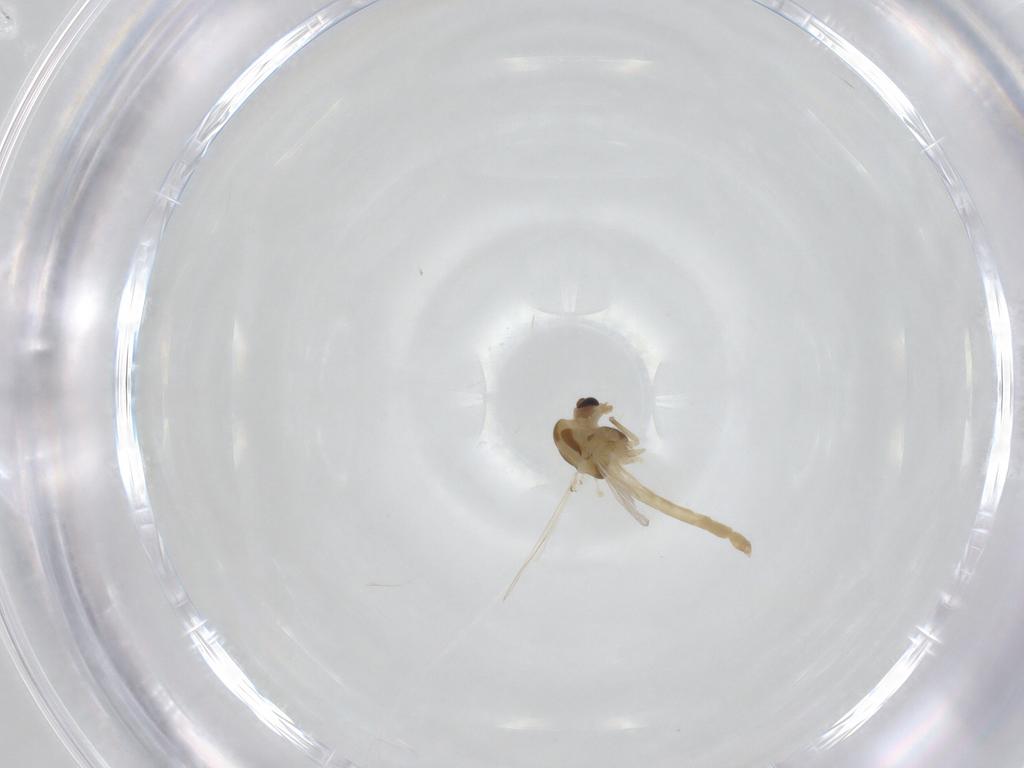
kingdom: Animalia
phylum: Arthropoda
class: Insecta
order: Diptera
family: Chironomidae
